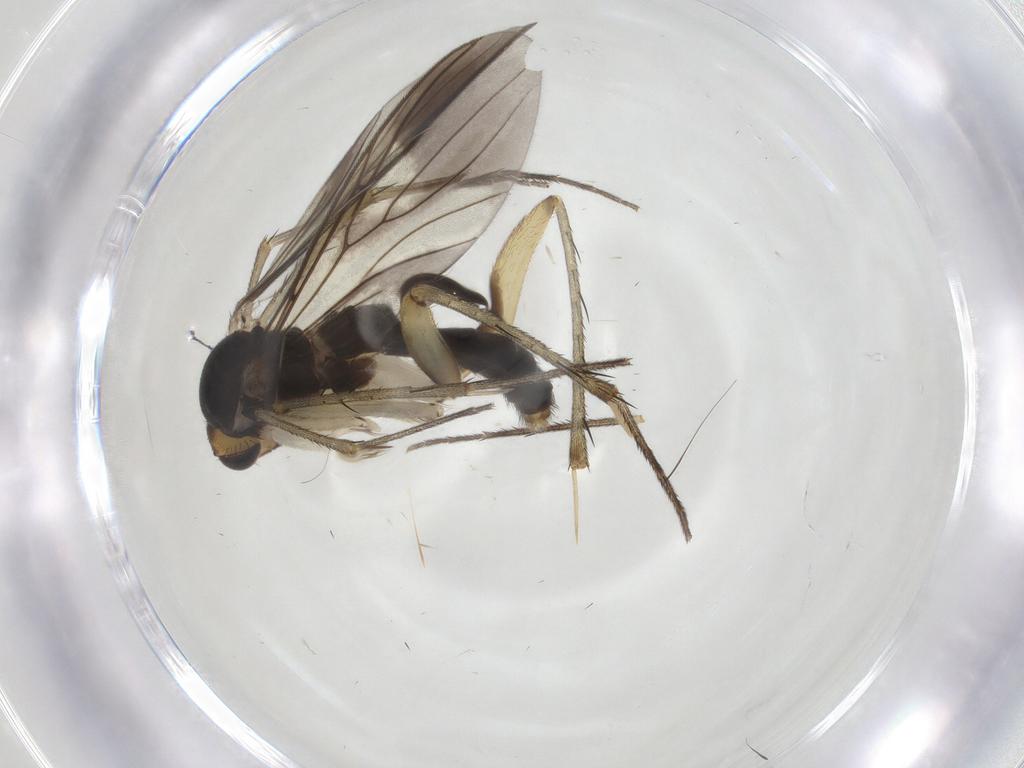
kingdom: Animalia
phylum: Arthropoda
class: Insecta
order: Diptera
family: Mycetophilidae
